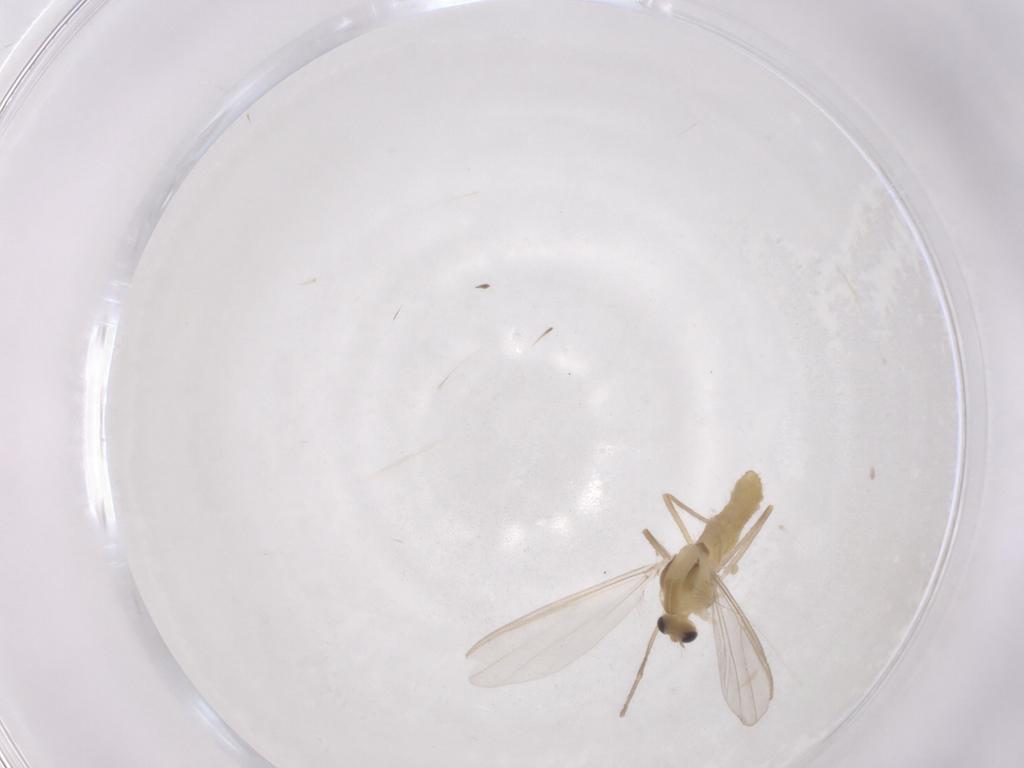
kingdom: Animalia
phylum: Arthropoda
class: Insecta
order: Diptera
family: Chironomidae
